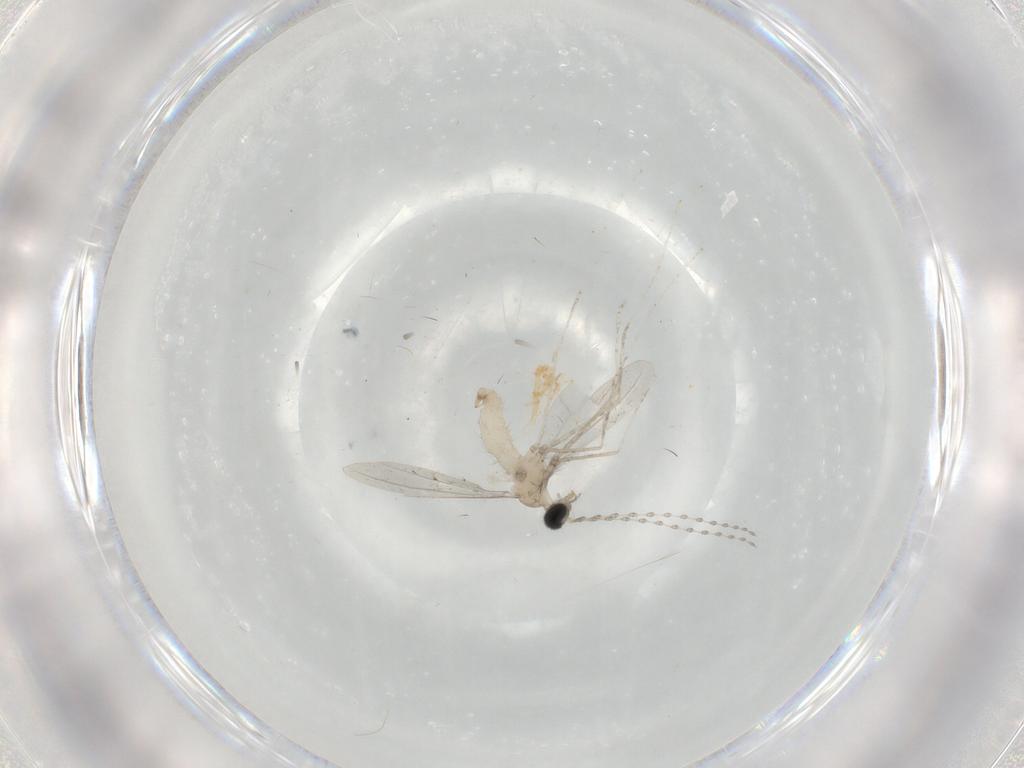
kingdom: Animalia
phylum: Arthropoda
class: Insecta
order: Diptera
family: Cecidomyiidae
